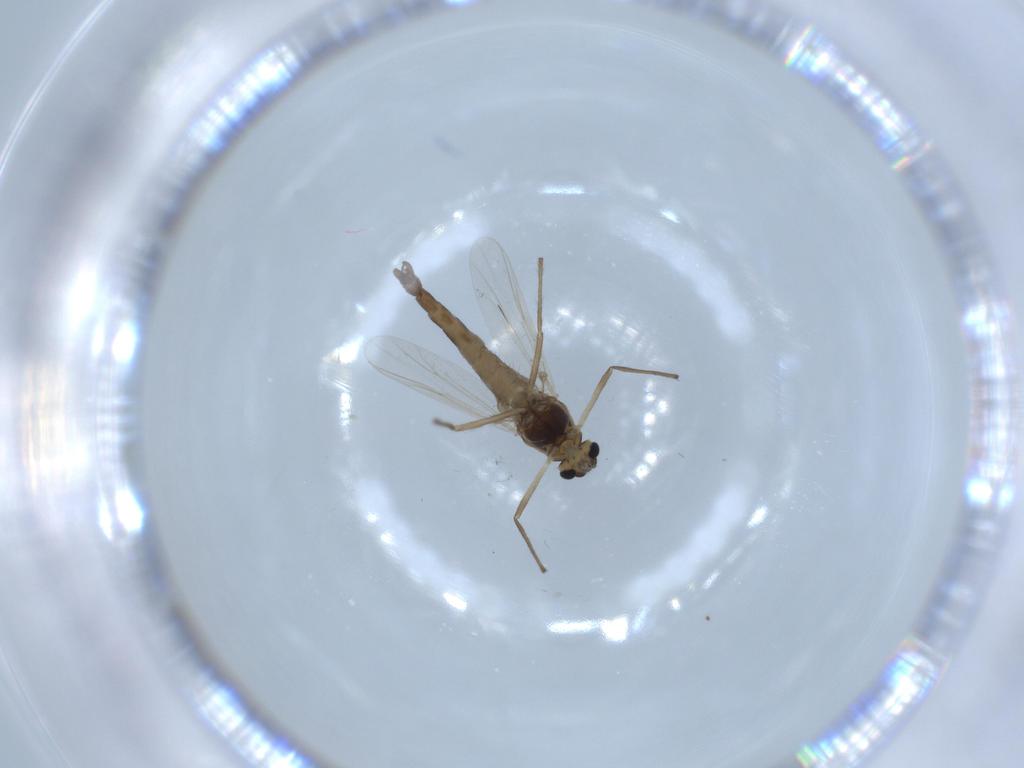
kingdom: Animalia
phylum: Arthropoda
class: Insecta
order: Diptera
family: Chironomidae
